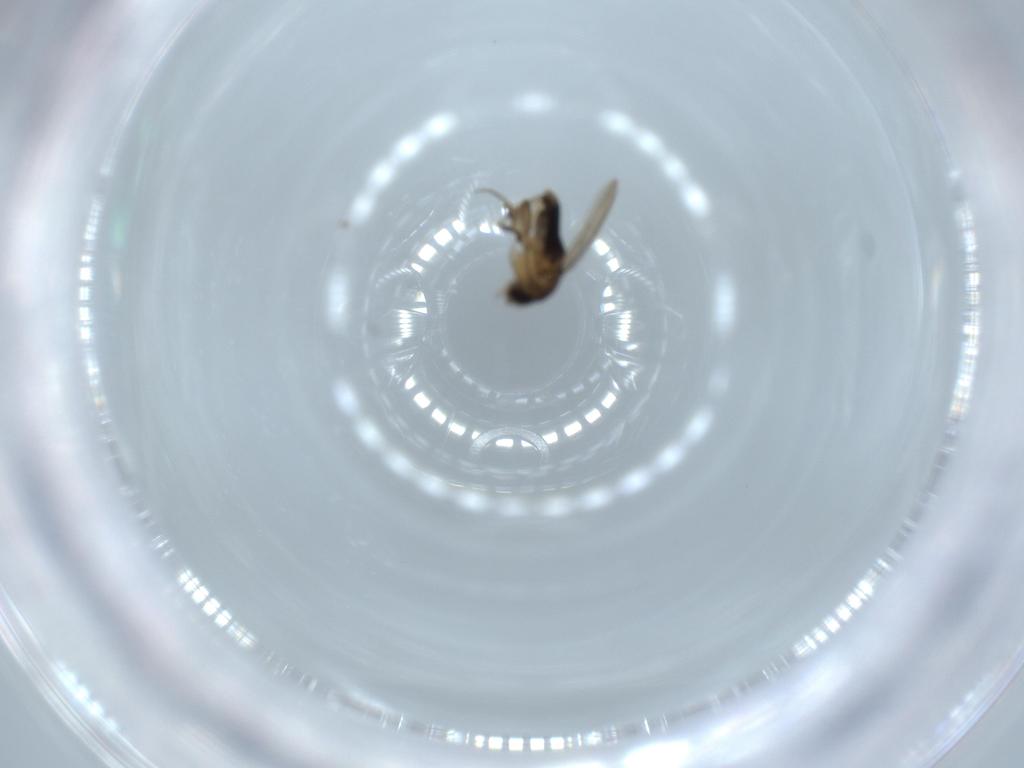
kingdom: Animalia
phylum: Arthropoda
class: Insecta
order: Diptera
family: Phoridae
